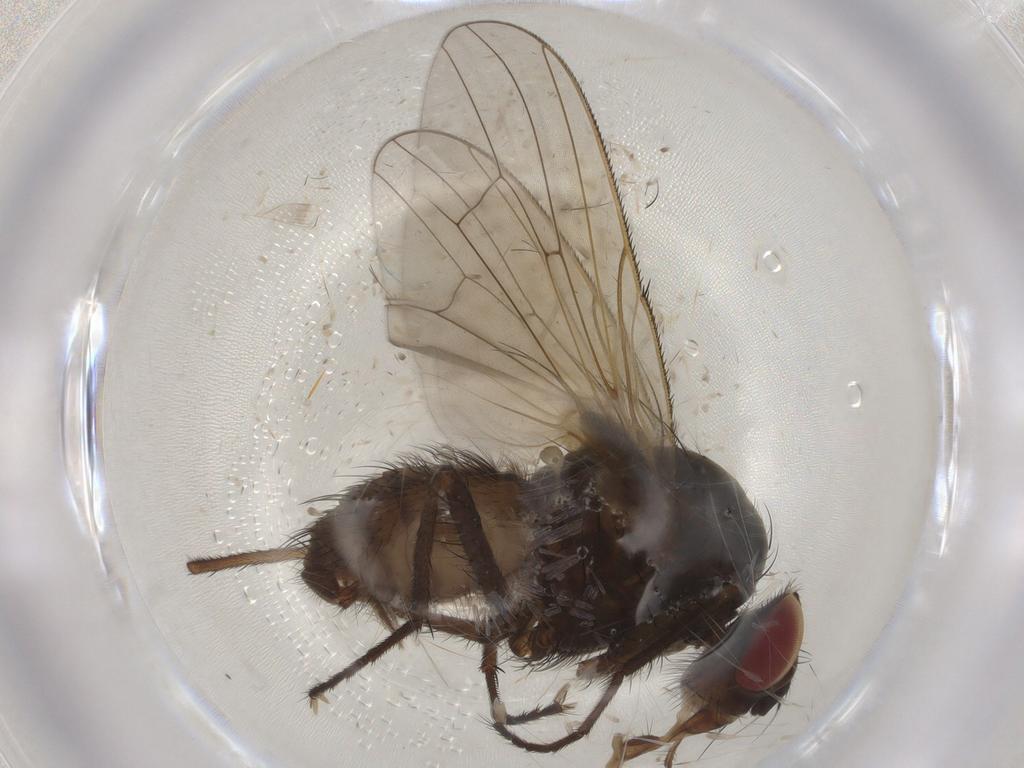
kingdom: Animalia
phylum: Arthropoda
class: Insecta
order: Diptera
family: Anthomyiidae
